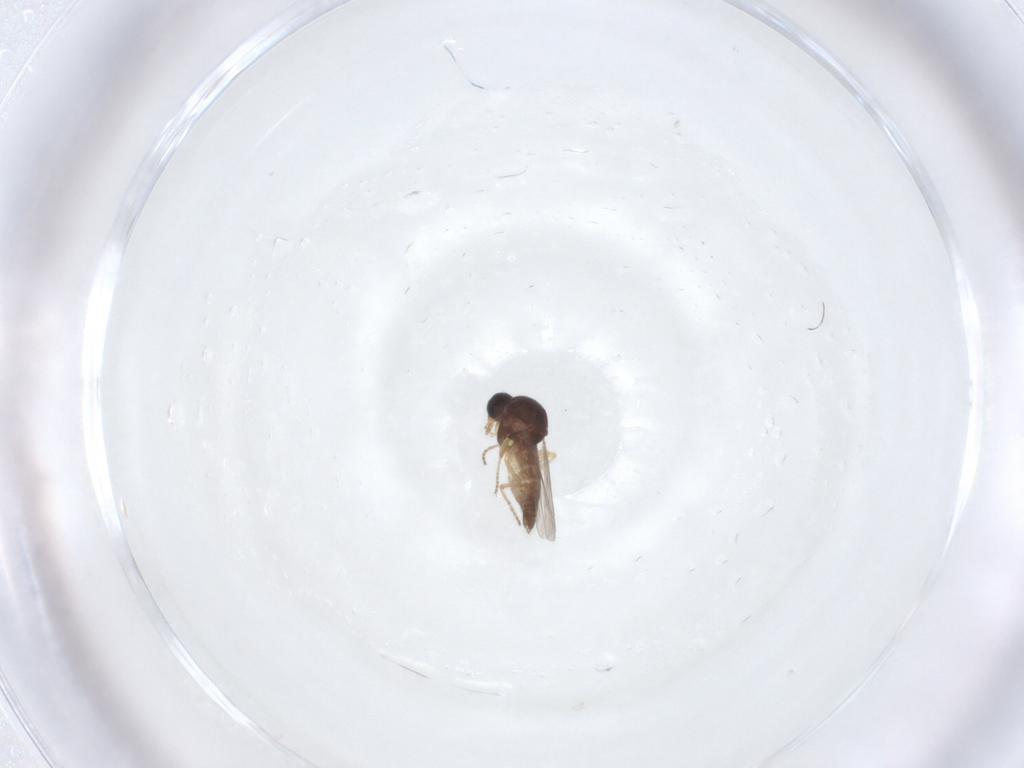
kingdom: Animalia
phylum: Arthropoda
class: Insecta
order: Diptera
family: Ceratopogonidae
